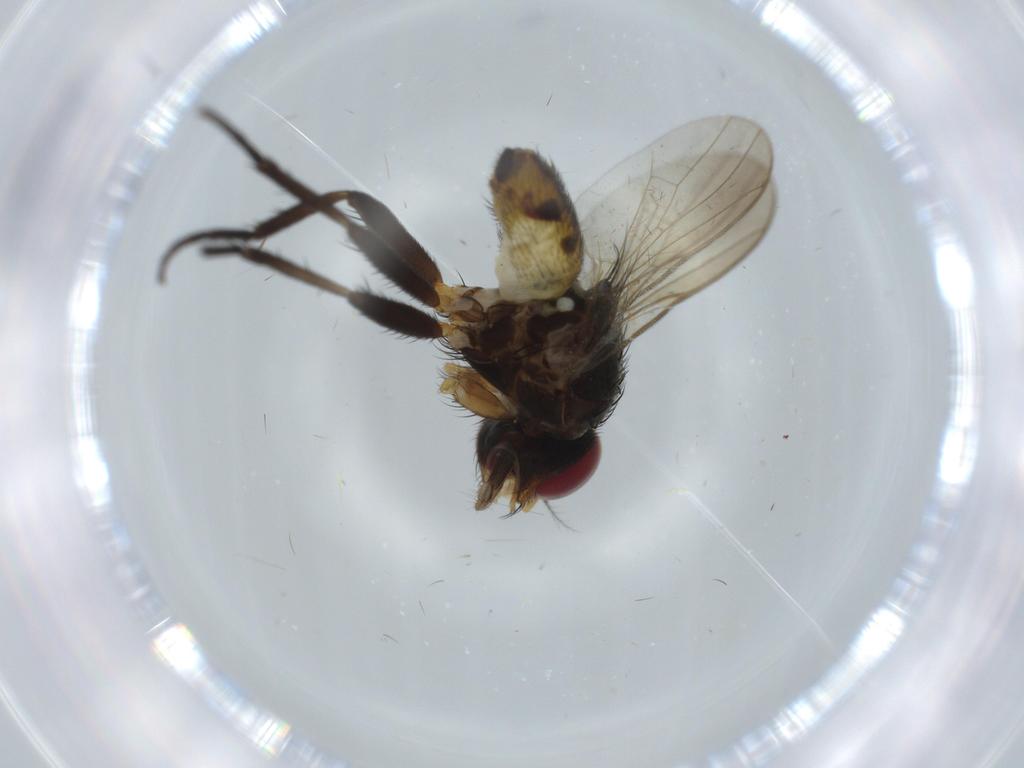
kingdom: Animalia
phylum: Arthropoda
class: Insecta
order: Diptera
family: Anthomyiidae
